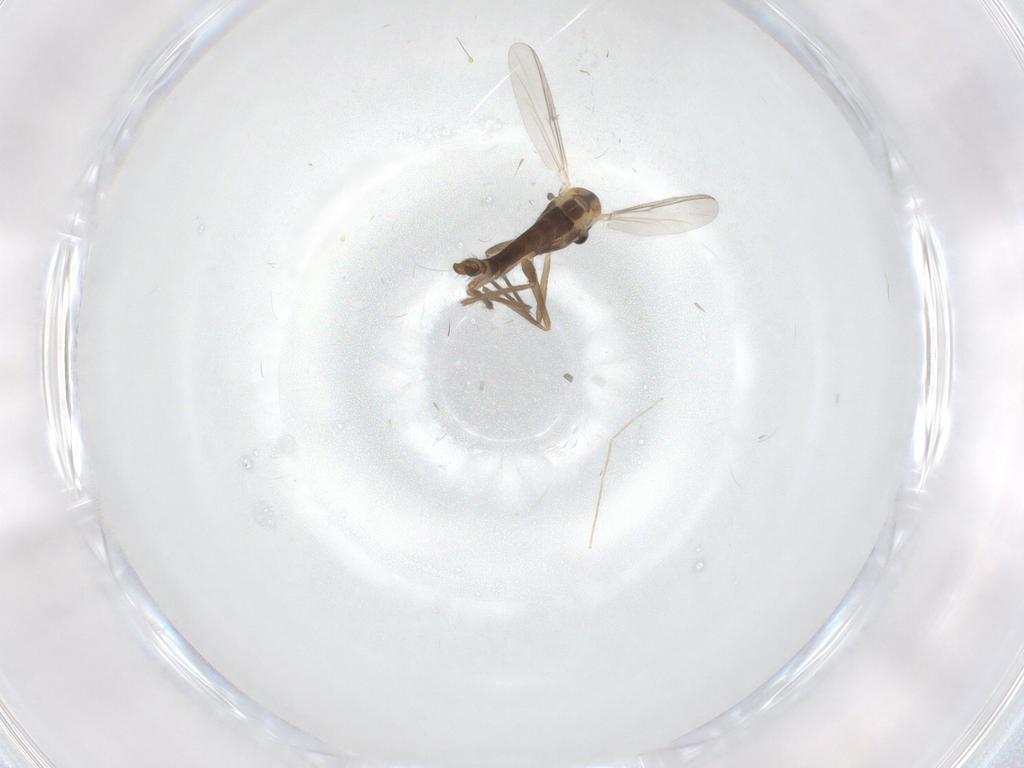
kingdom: Animalia
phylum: Arthropoda
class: Insecta
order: Diptera
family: Chironomidae
